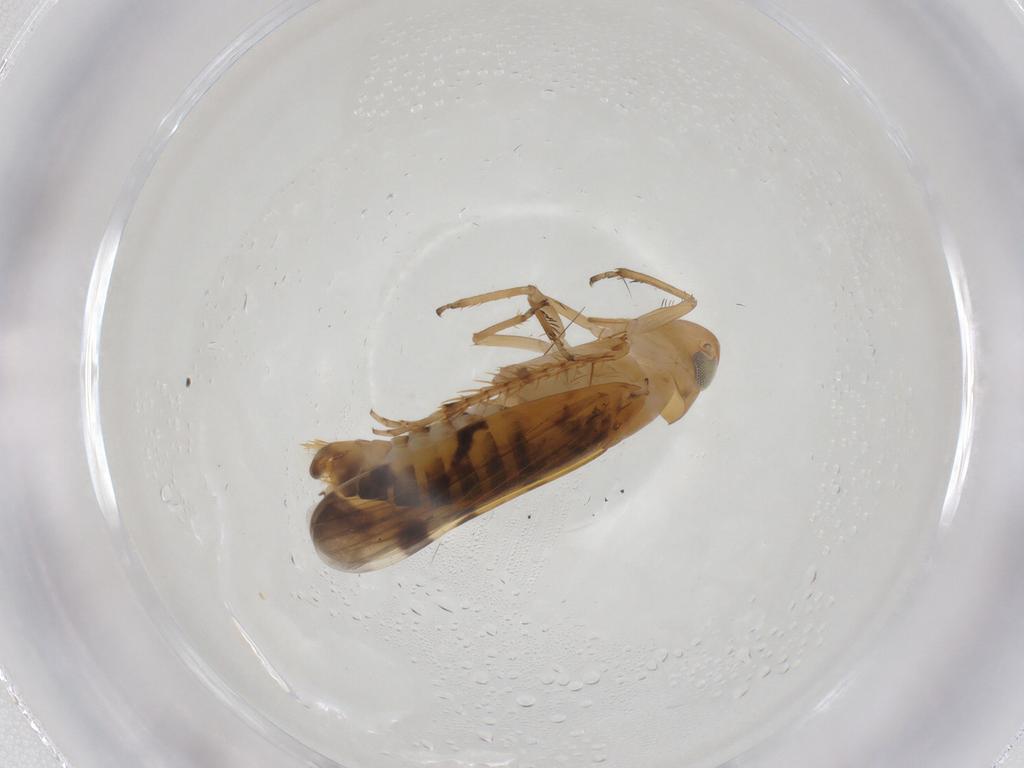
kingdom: Animalia
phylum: Arthropoda
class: Insecta
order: Hemiptera
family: Cicadellidae
